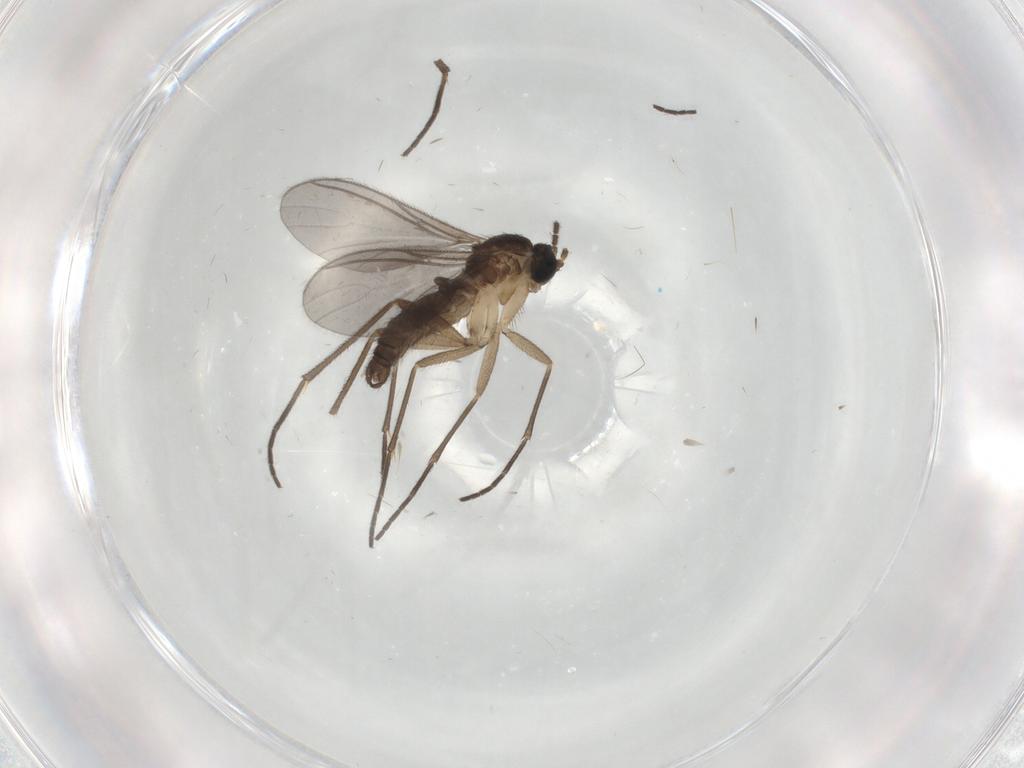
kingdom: Animalia
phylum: Arthropoda
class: Insecta
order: Diptera
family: Sciaridae
